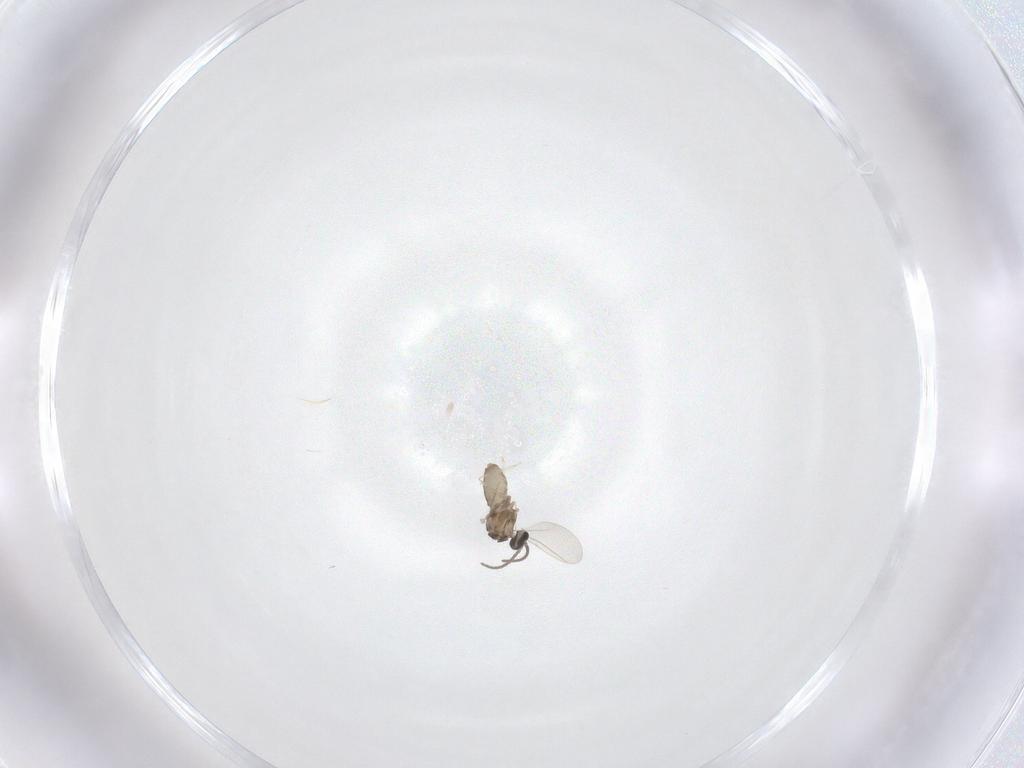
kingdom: Animalia
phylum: Arthropoda
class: Insecta
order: Diptera
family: Cecidomyiidae
